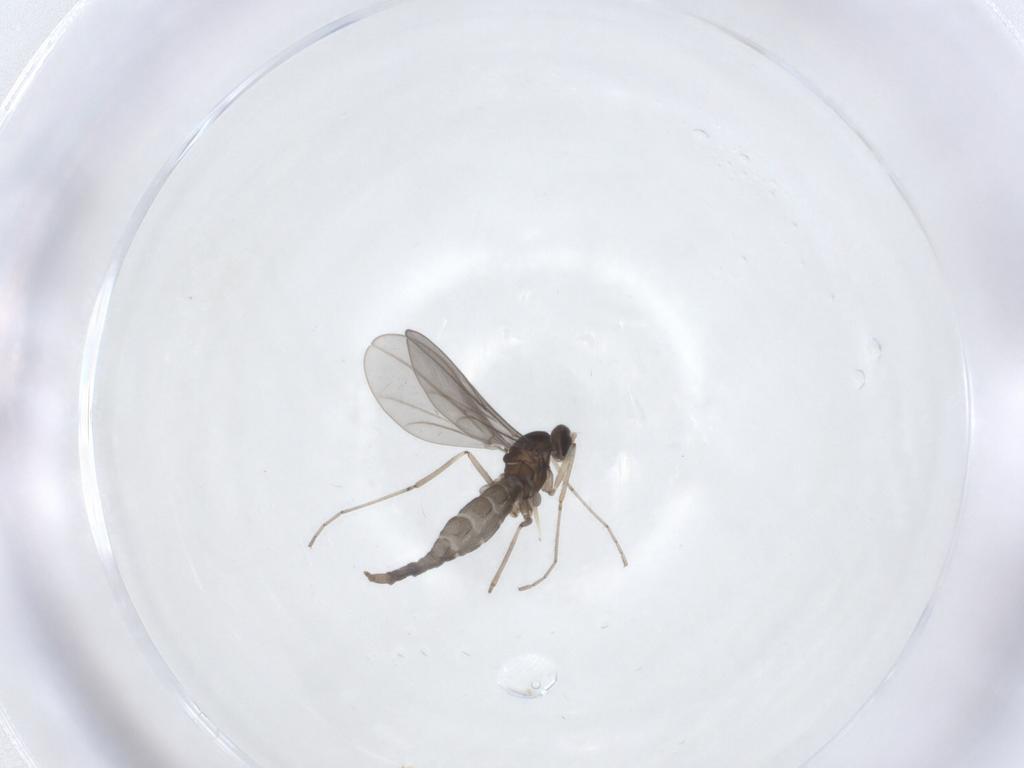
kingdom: Animalia
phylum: Arthropoda
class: Insecta
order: Diptera
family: Cecidomyiidae
